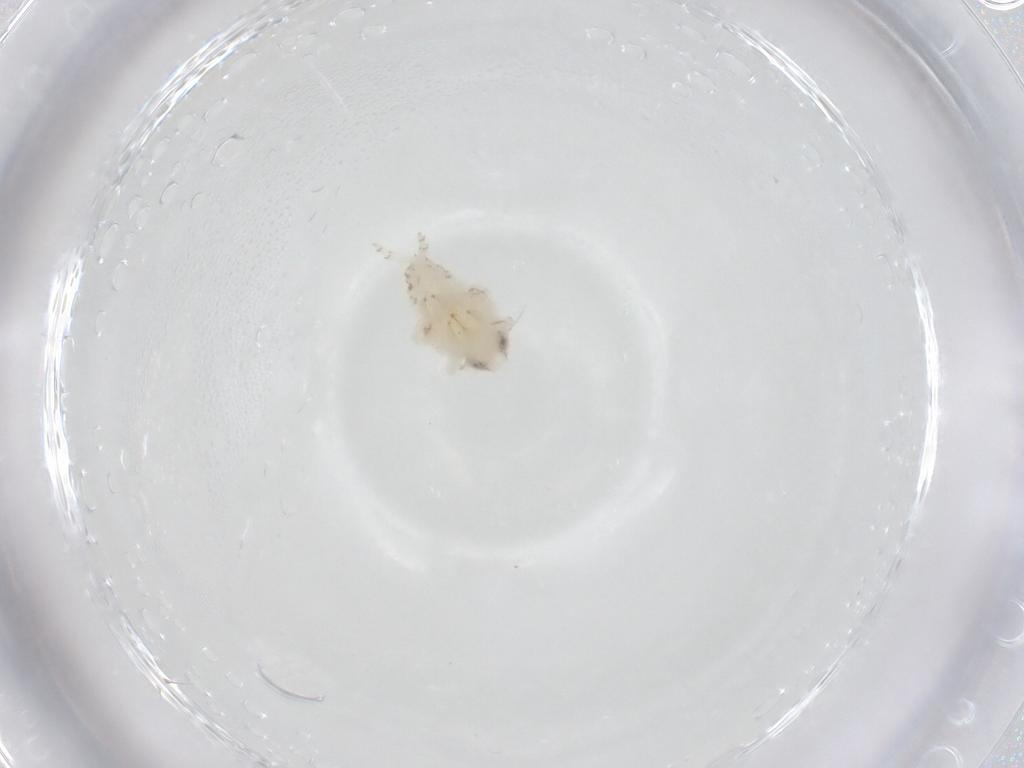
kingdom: Animalia
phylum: Arthropoda
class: Insecta
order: Hemiptera
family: Nogodinidae
